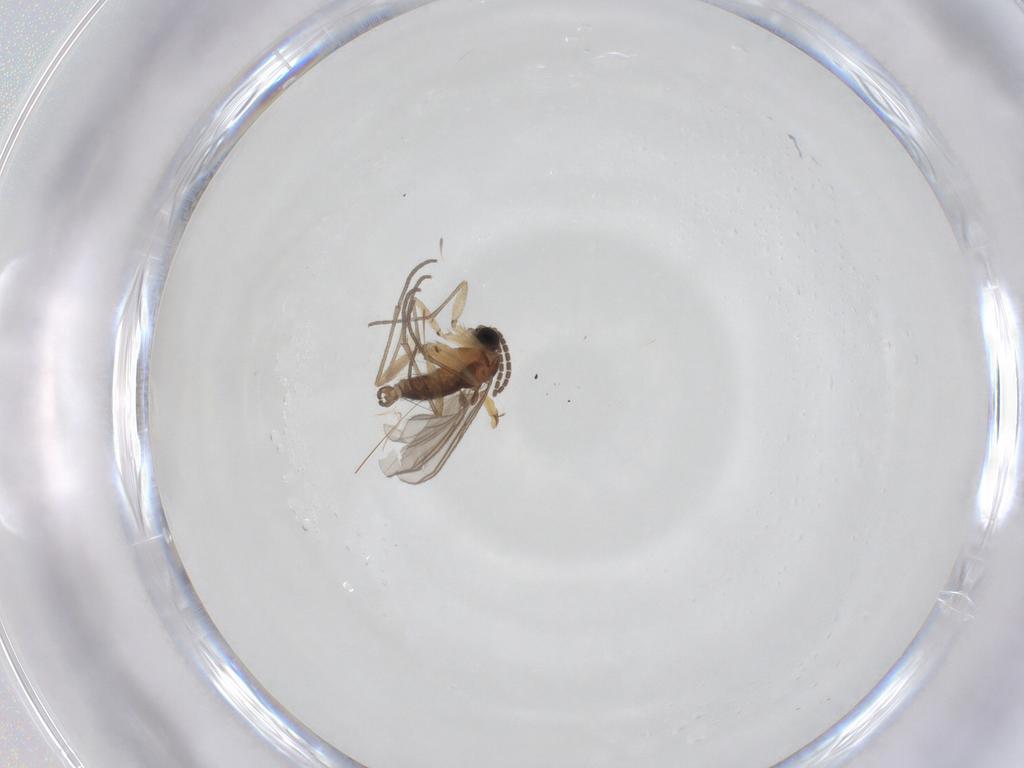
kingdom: Animalia
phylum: Arthropoda
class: Insecta
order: Diptera
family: Sciaridae
